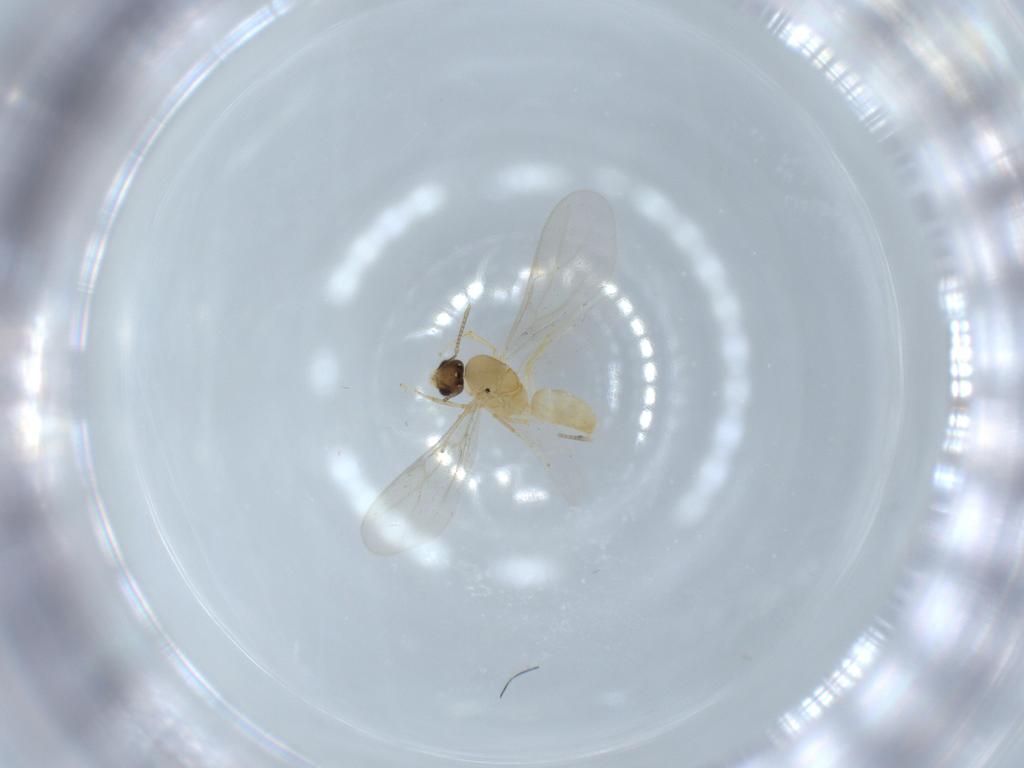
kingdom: Animalia
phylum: Arthropoda
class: Insecta
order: Hymenoptera
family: Formicidae
